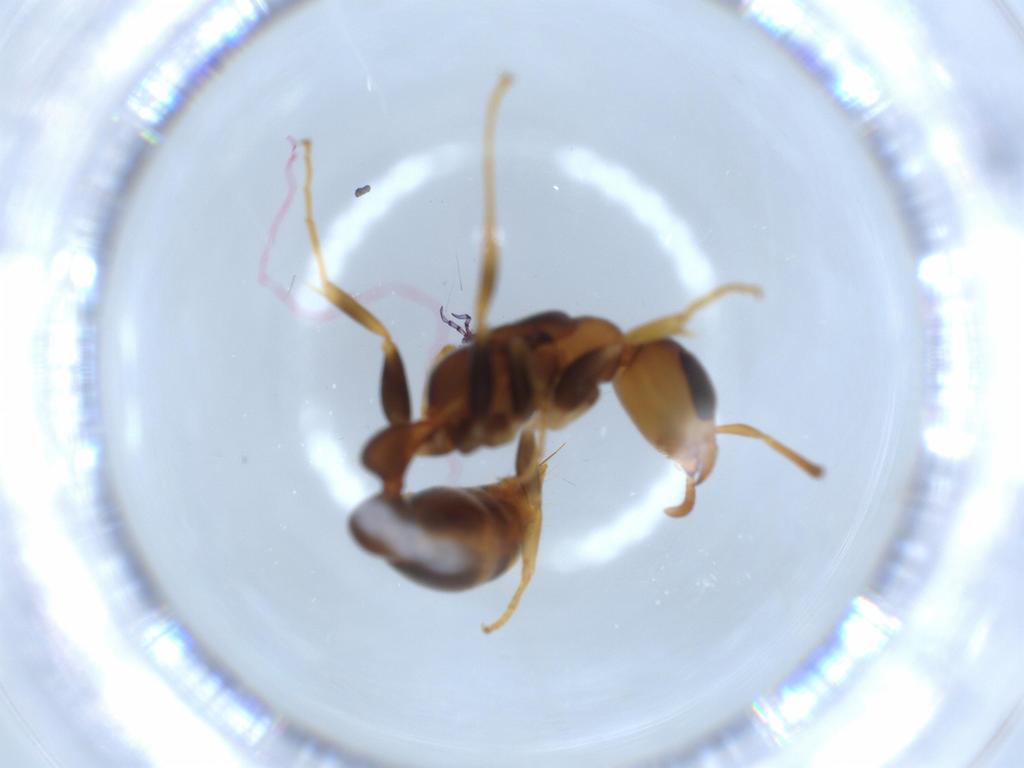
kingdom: Animalia
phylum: Arthropoda
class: Insecta
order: Hymenoptera
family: Formicidae
